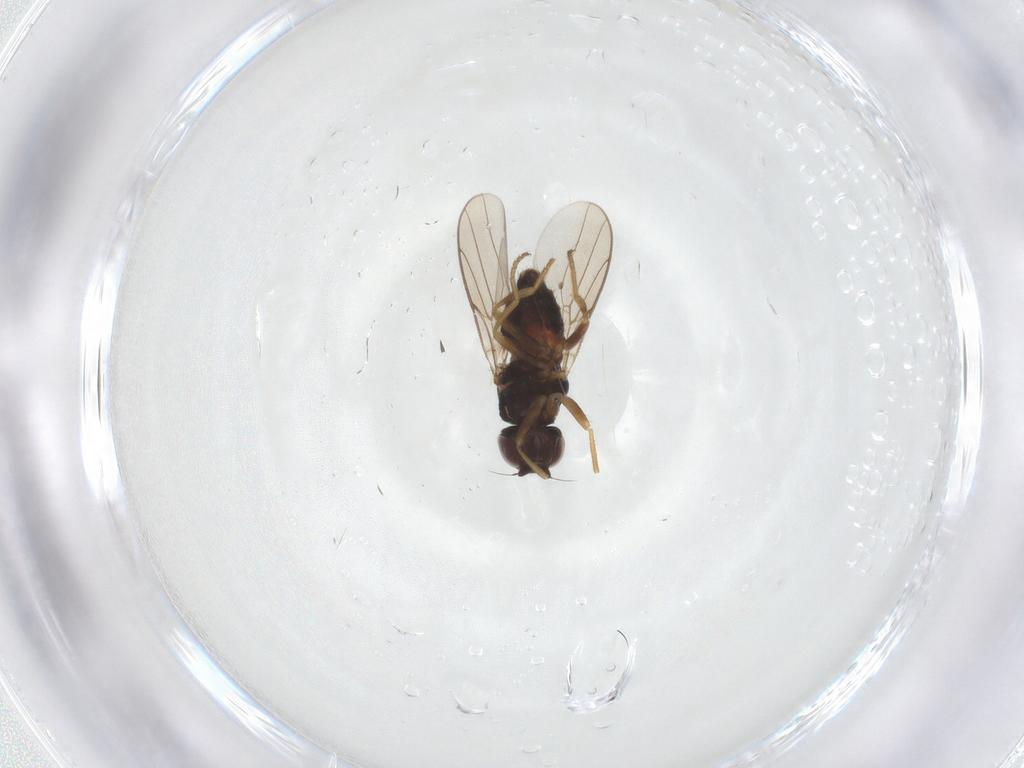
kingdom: Animalia
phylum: Arthropoda
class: Insecta
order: Diptera
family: Chloropidae
